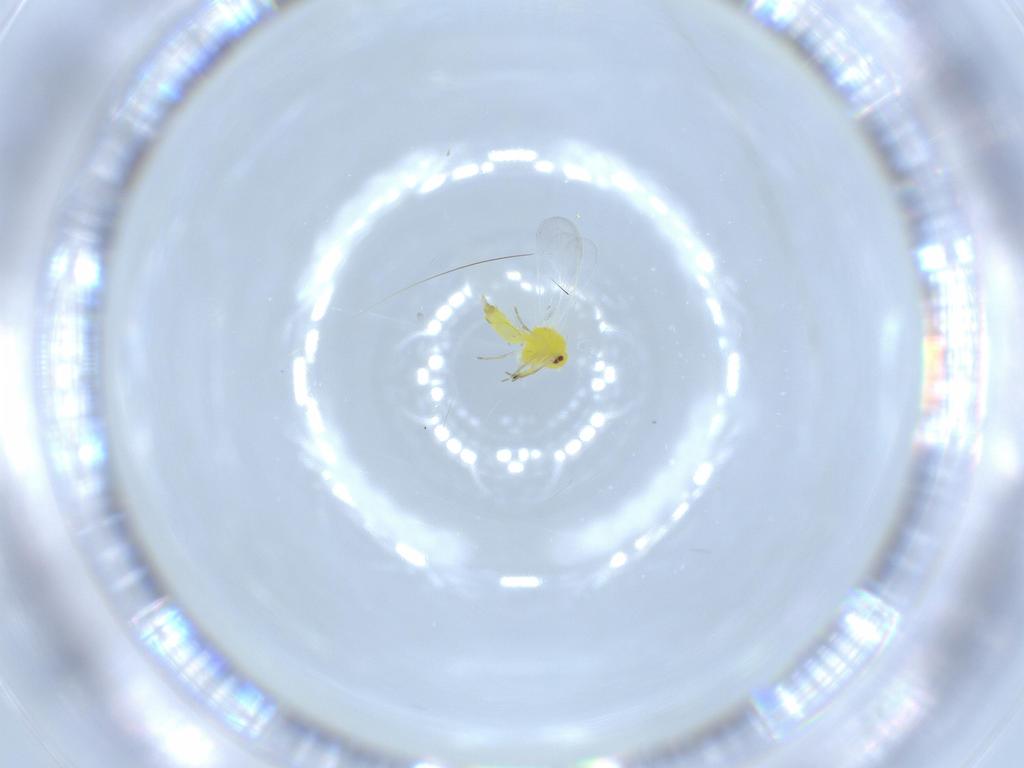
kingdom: Animalia
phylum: Arthropoda
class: Insecta
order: Hemiptera
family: Aleyrodidae
